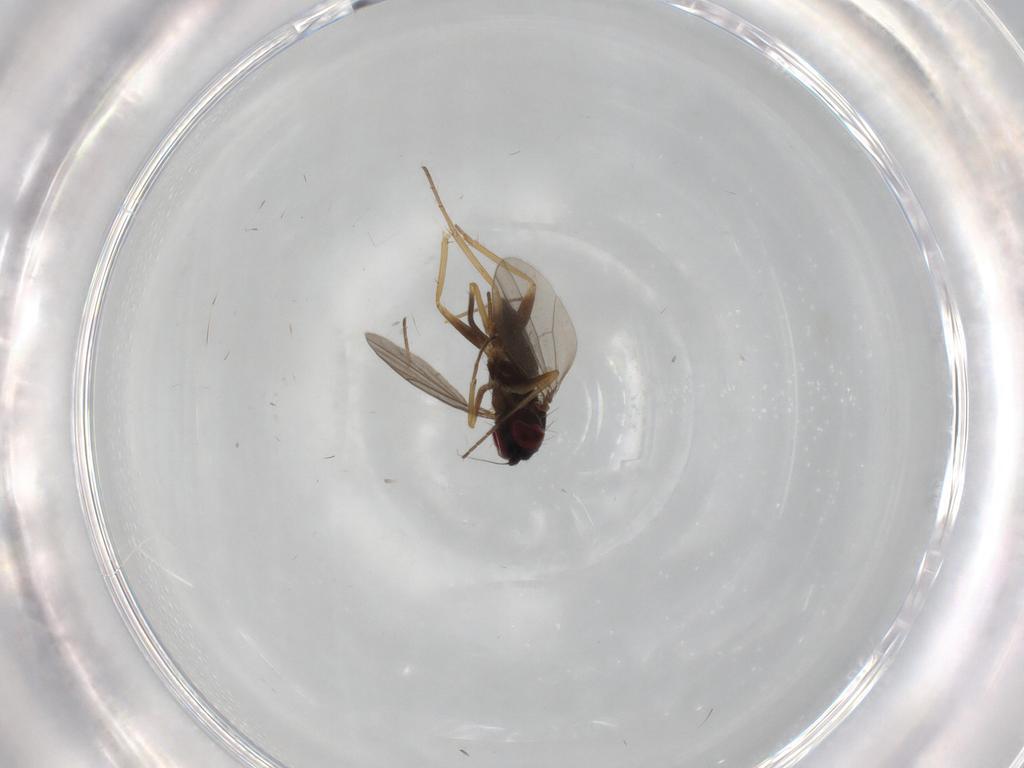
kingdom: Animalia
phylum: Arthropoda
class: Insecta
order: Diptera
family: Dolichopodidae
